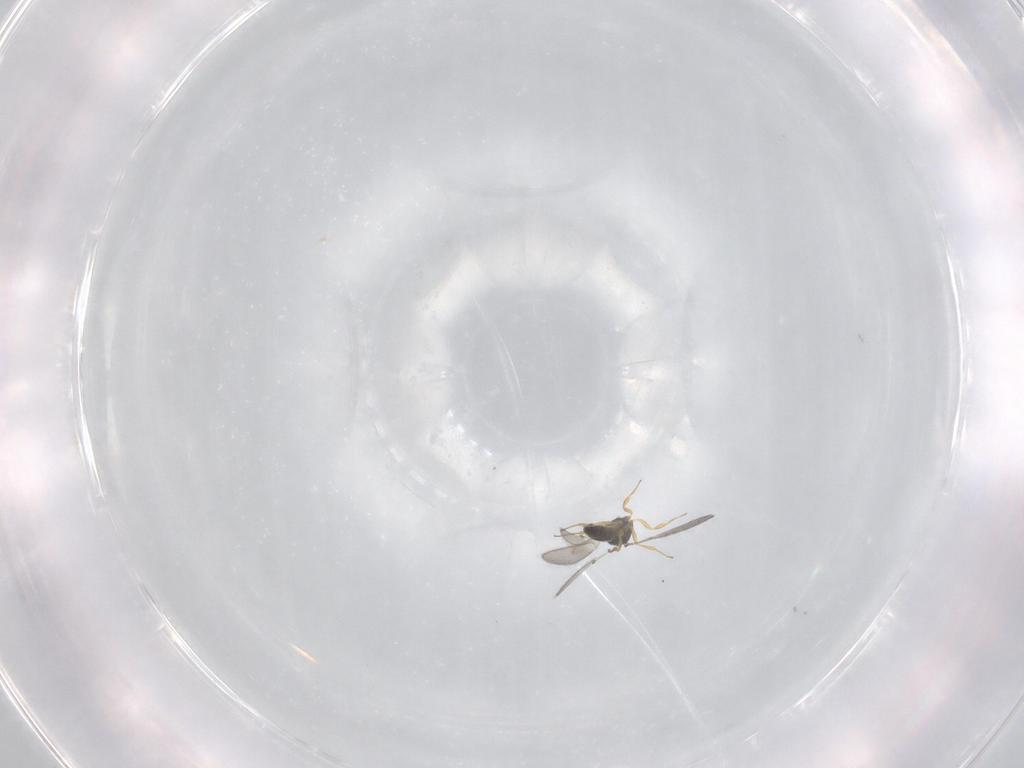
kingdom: Animalia
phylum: Arthropoda
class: Insecta
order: Hymenoptera
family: Scelionidae
